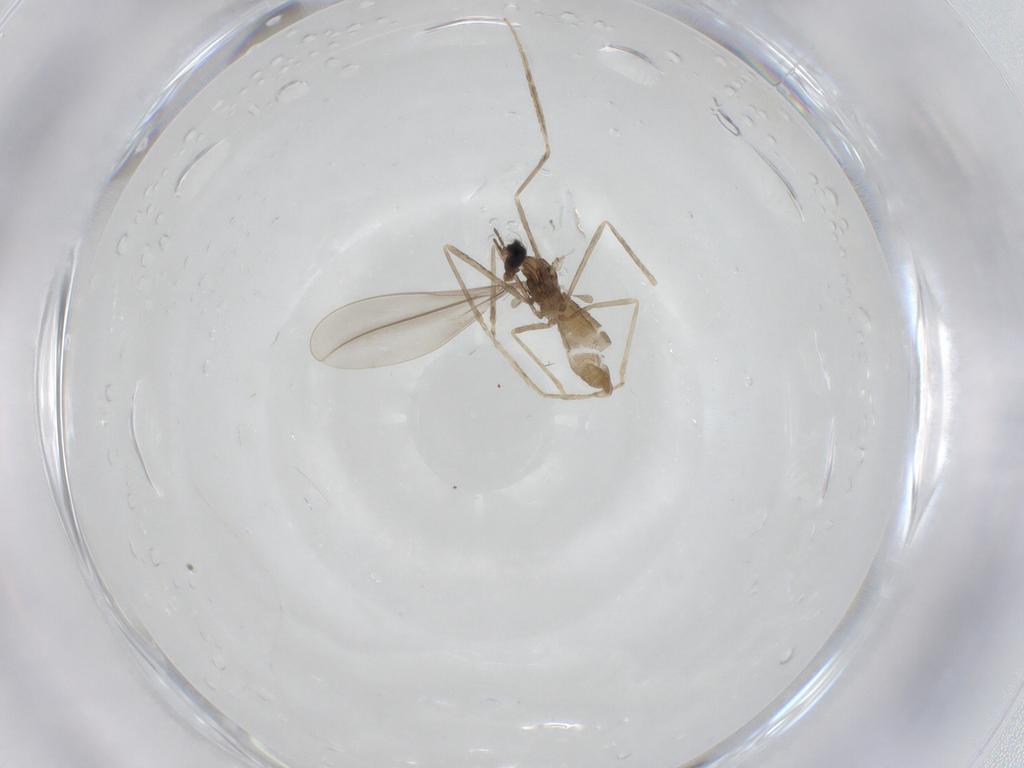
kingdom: Animalia
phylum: Arthropoda
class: Insecta
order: Diptera
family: Cecidomyiidae
